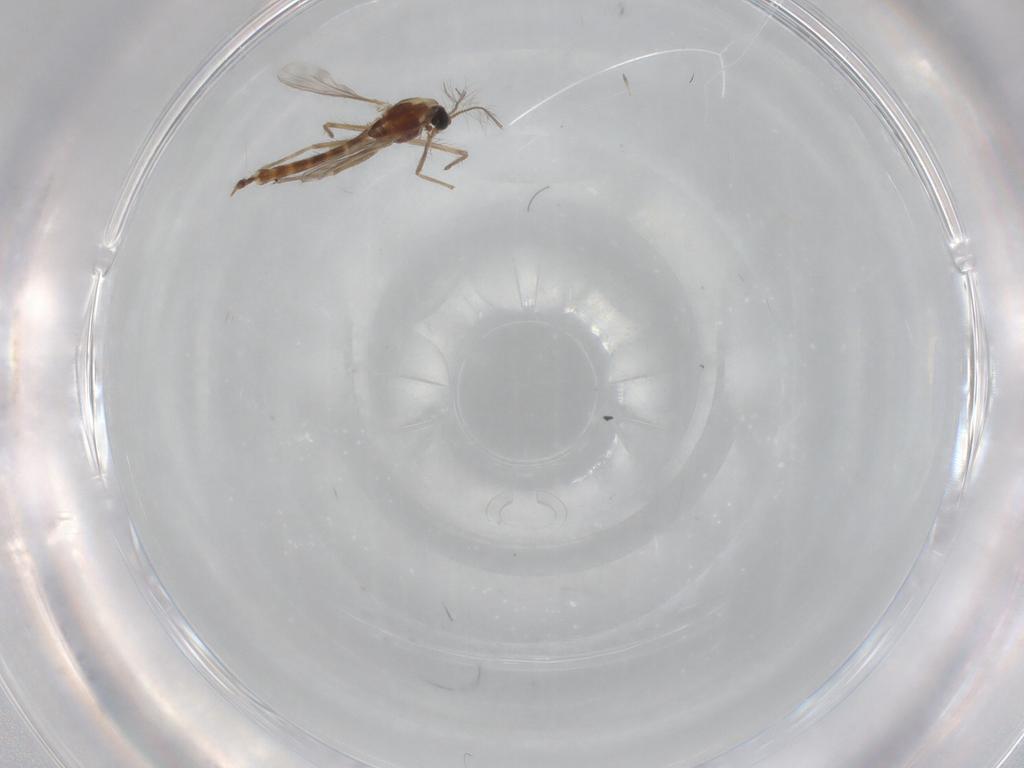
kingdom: Animalia
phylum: Arthropoda
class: Insecta
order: Diptera
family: Chironomidae
